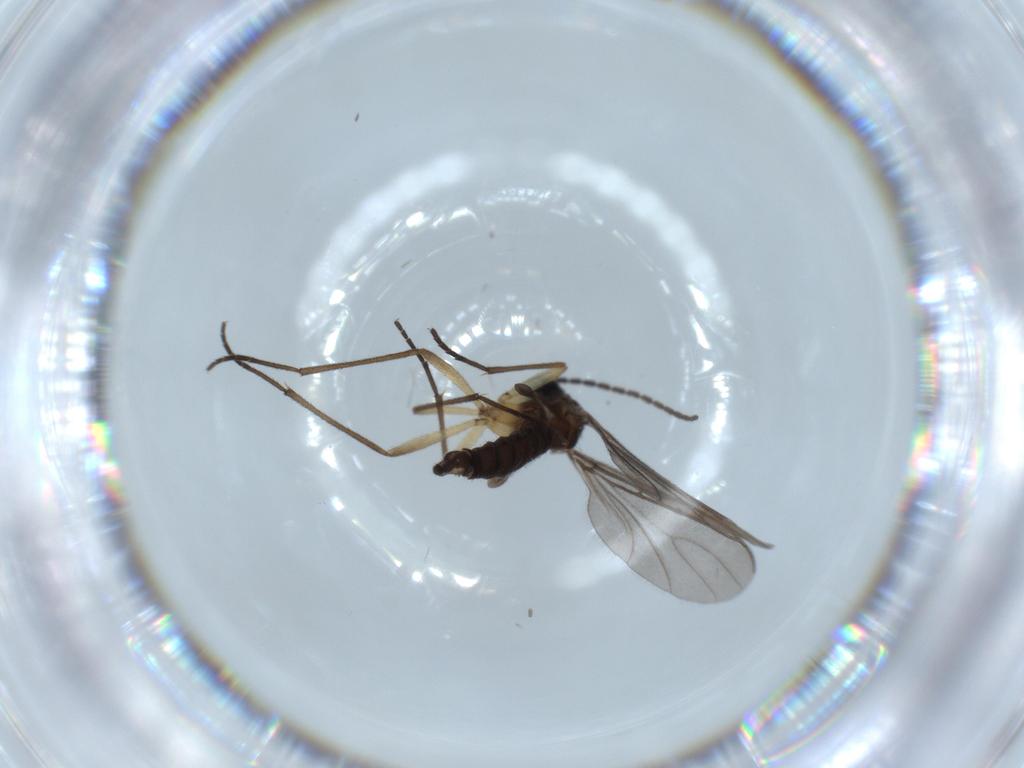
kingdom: Animalia
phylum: Arthropoda
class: Insecta
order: Diptera
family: Sciaridae
